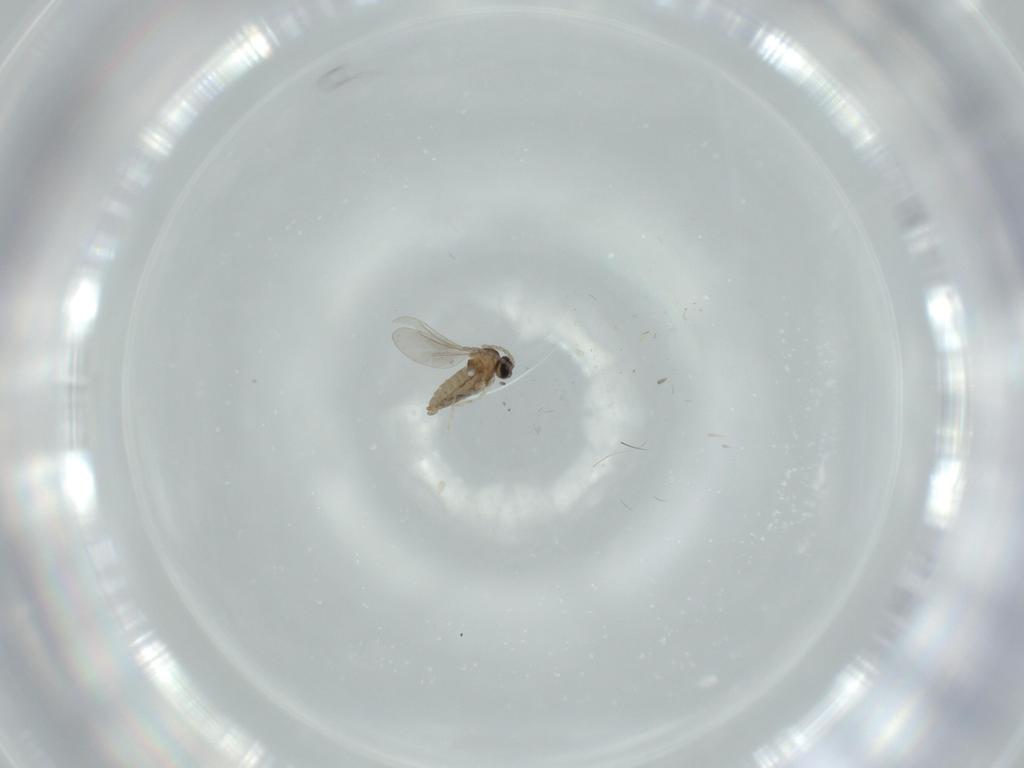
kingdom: Animalia
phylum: Arthropoda
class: Insecta
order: Diptera
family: Cecidomyiidae
